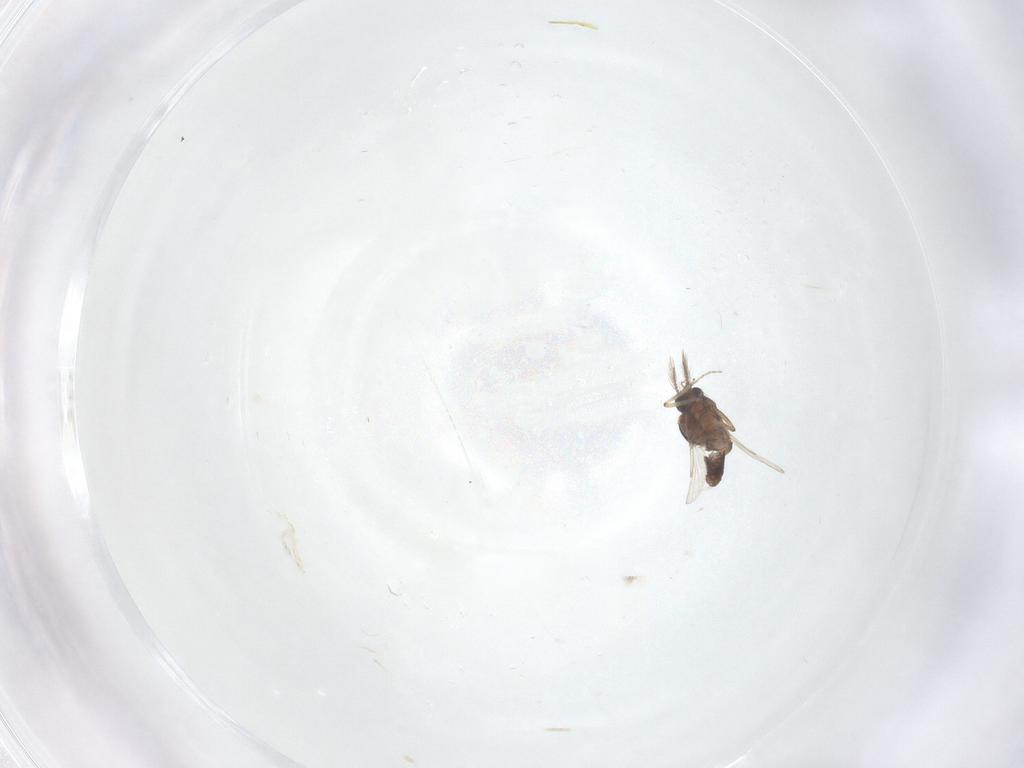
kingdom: Animalia
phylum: Arthropoda
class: Insecta
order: Diptera
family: Ceratopogonidae
